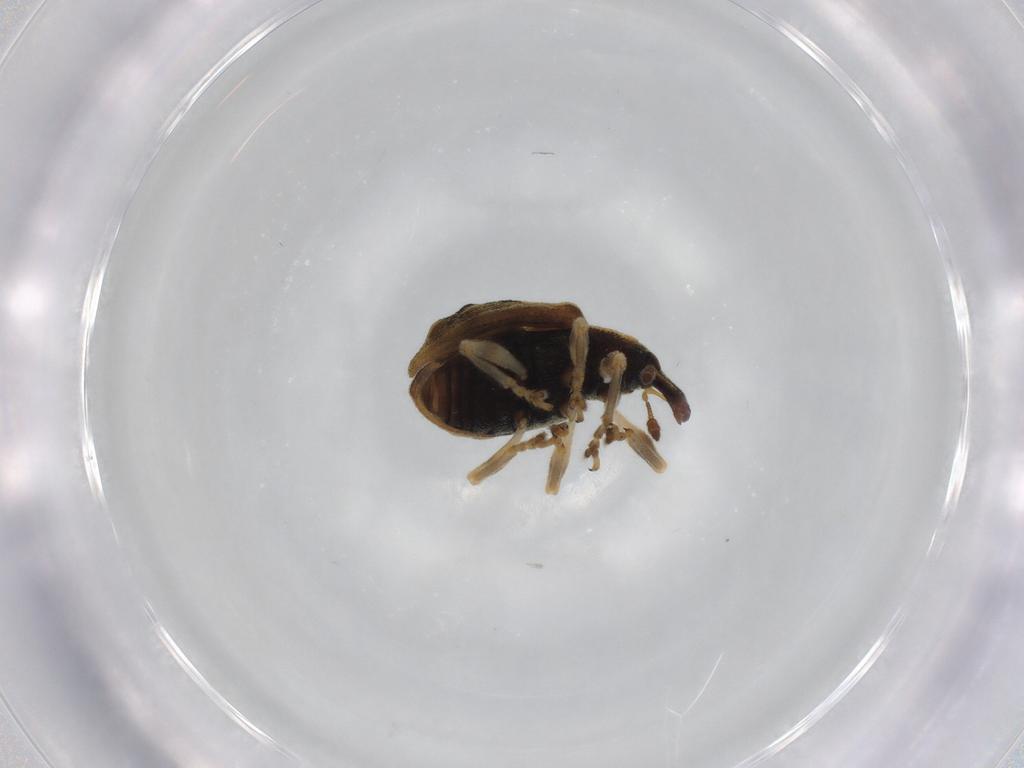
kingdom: Animalia
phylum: Arthropoda
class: Insecta
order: Coleoptera
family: Curculionidae
